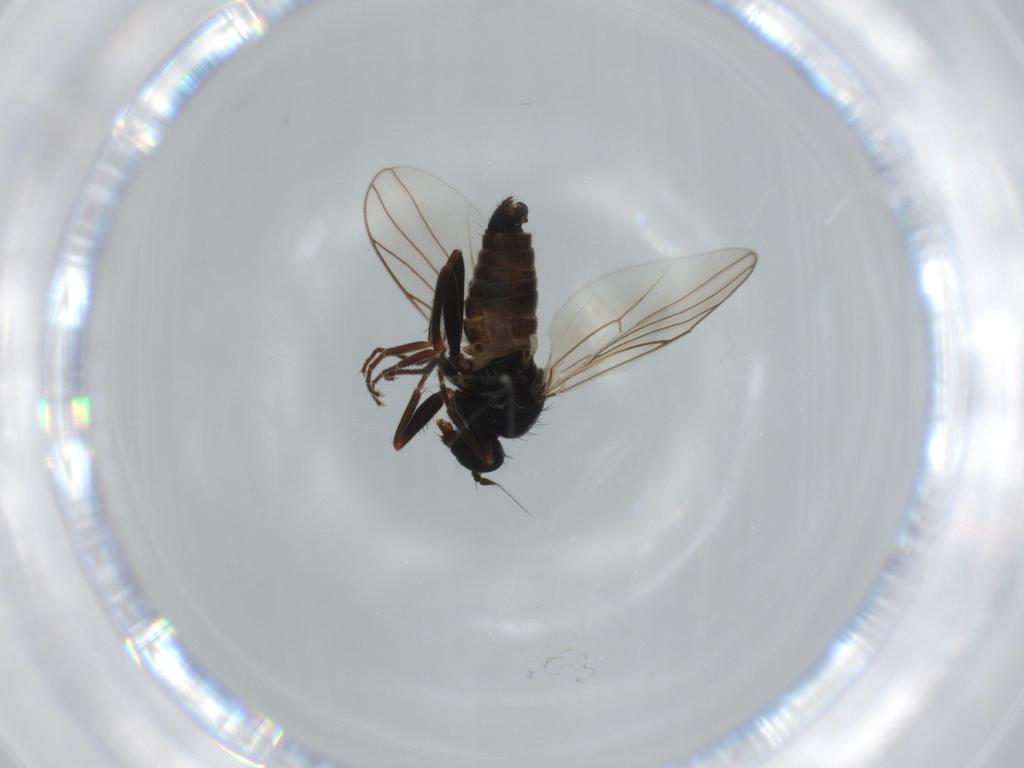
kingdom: Animalia
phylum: Arthropoda
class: Insecta
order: Diptera
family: Hybotidae
